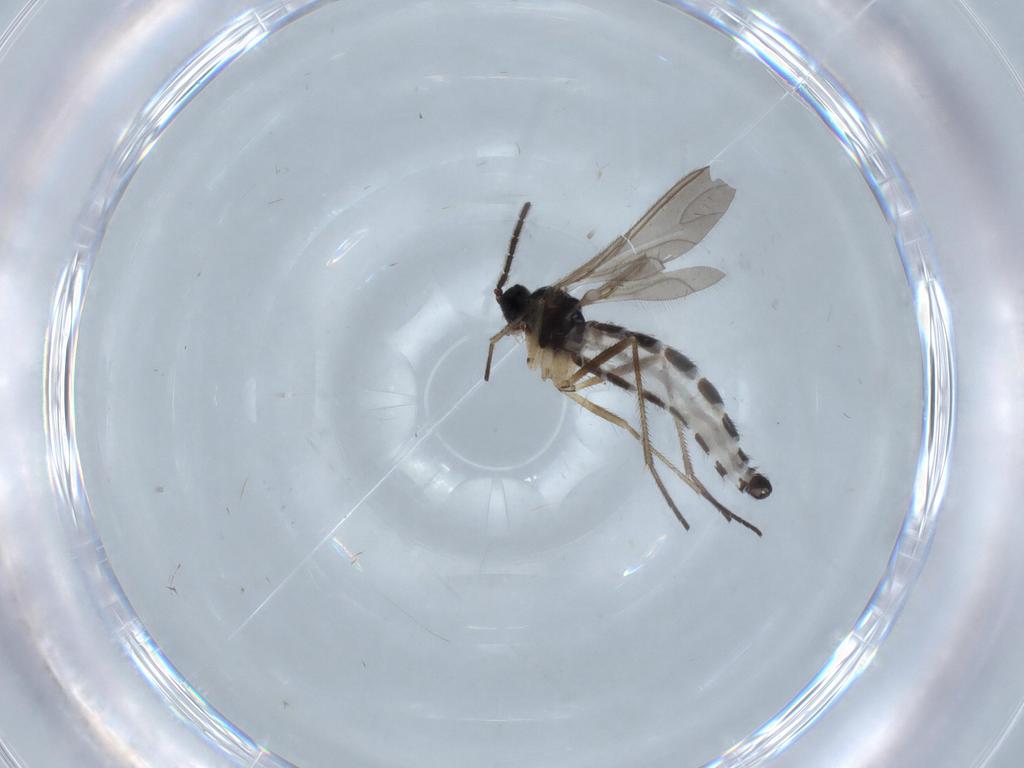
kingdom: Animalia
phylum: Arthropoda
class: Insecta
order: Diptera
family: Sciaridae
